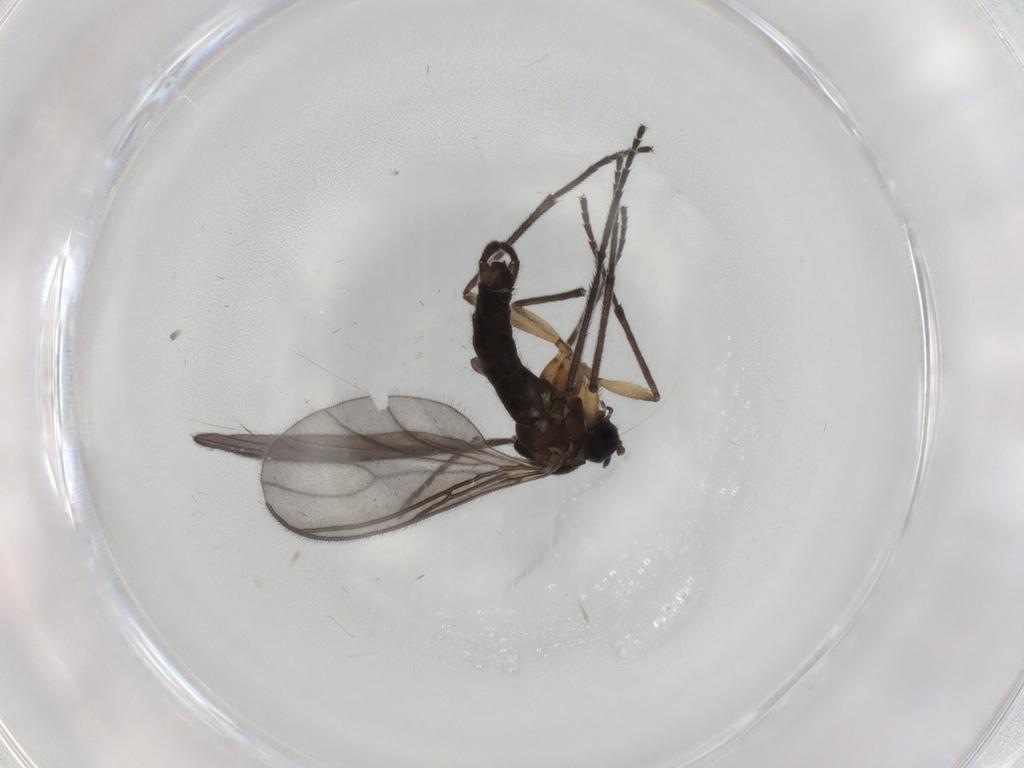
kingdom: Animalia
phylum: Arthropoda
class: Insecta
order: Diptera
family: Sciaridae
